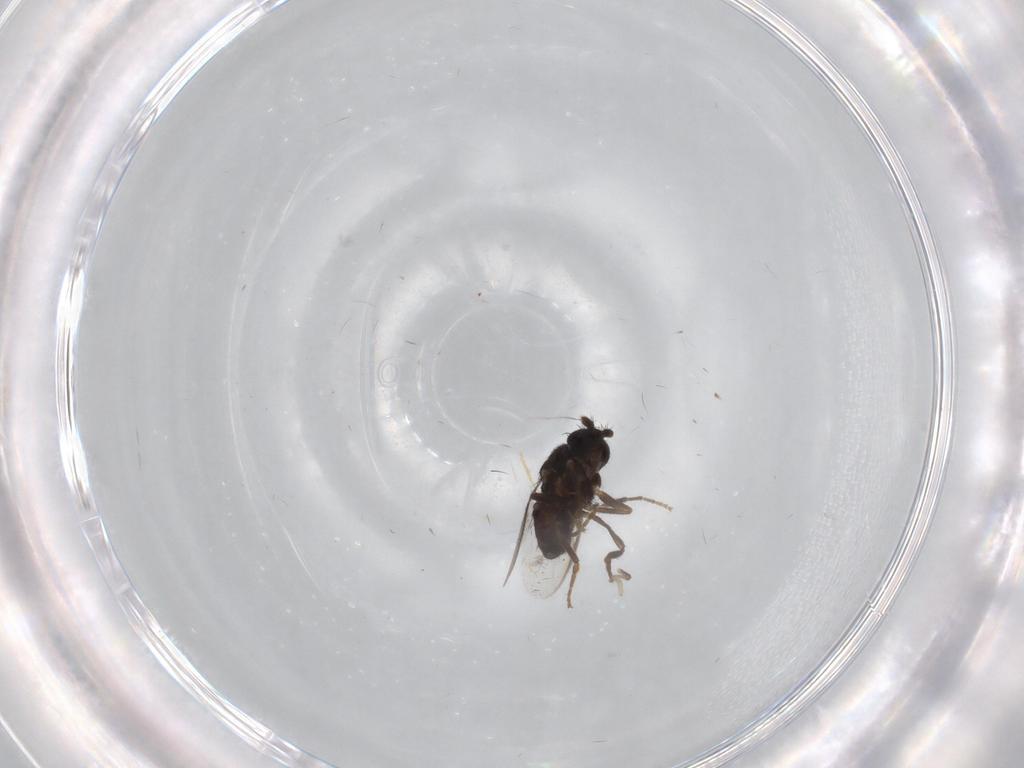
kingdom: Animalia
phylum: Arthropoda
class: Insecta
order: Diptera
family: Sphaeroceridae
